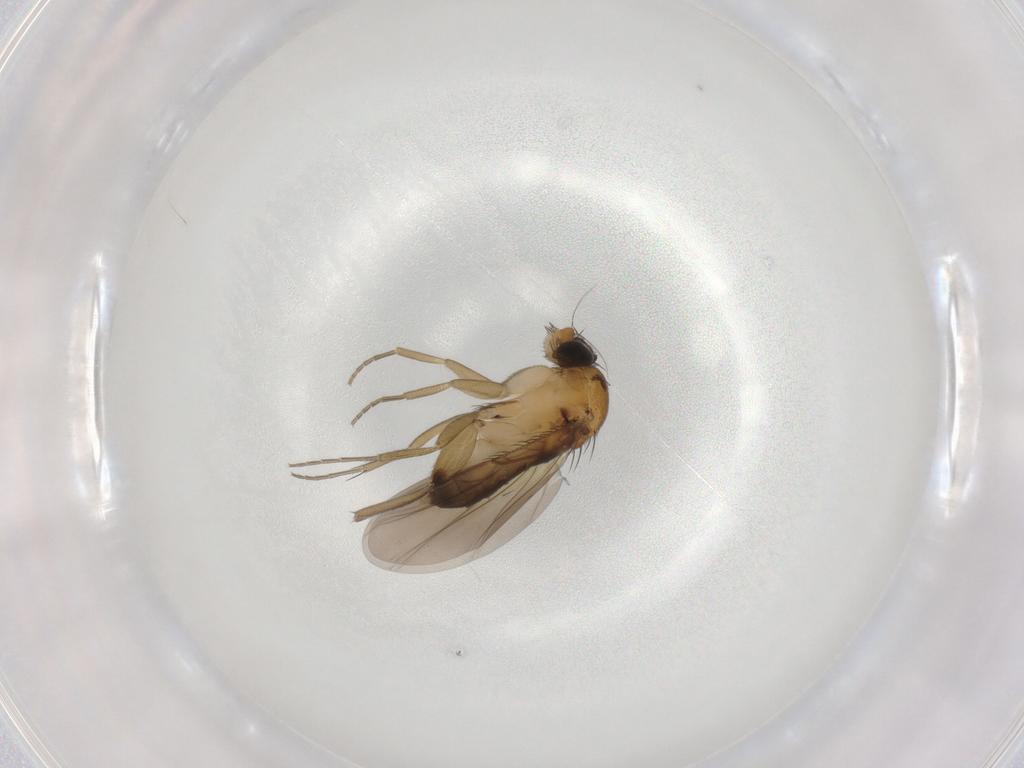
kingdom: Animalia
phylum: Arthropoda
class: Insecta
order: Diptera
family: Phoridae
